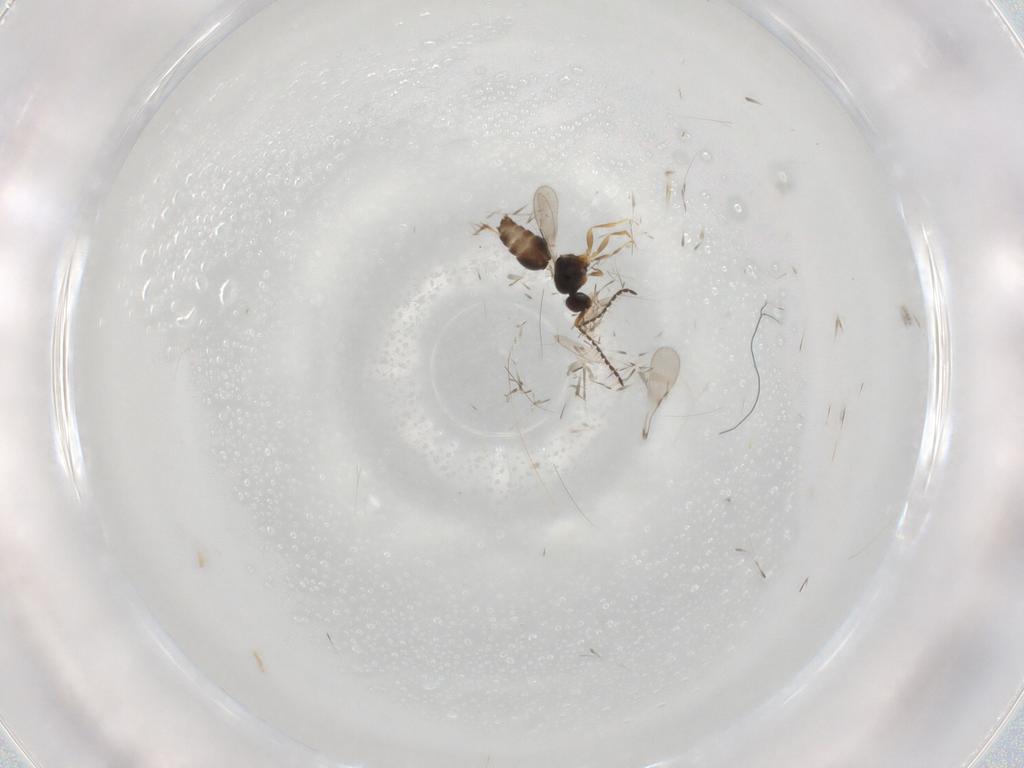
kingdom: Animalia
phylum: Arthropoda
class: Insecta
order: Hymenoptera
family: Ceraphronidae
